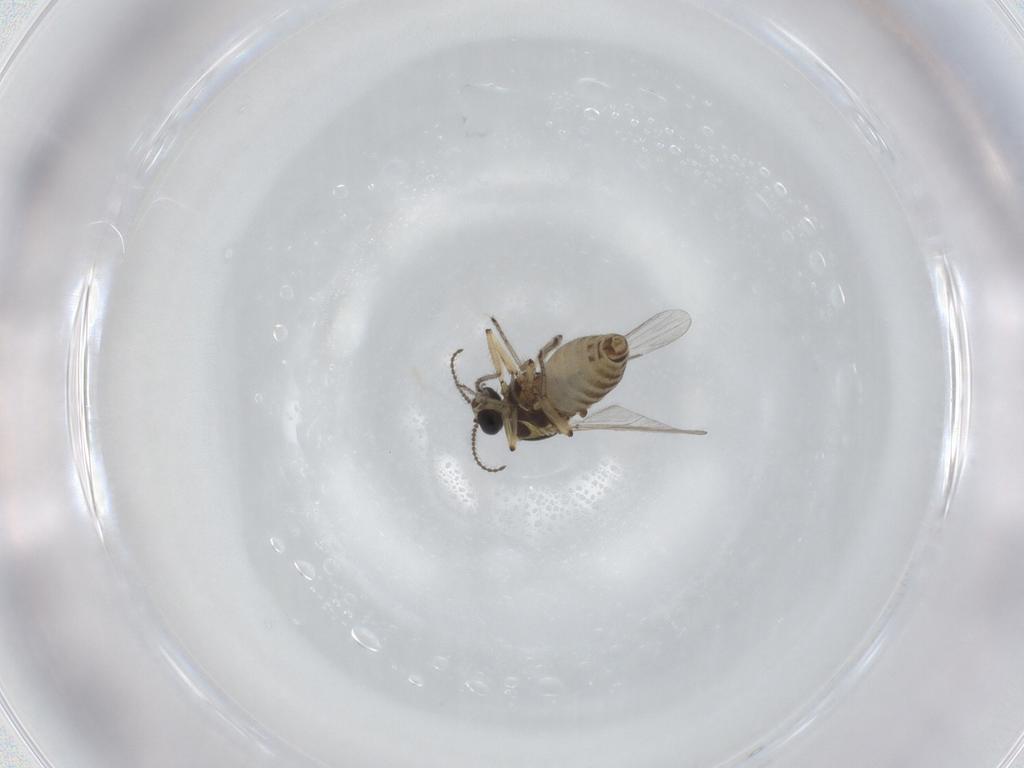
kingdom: Animalia
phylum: Arthropoda
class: Insecta
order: Diptera
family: Ceratopogonidae
